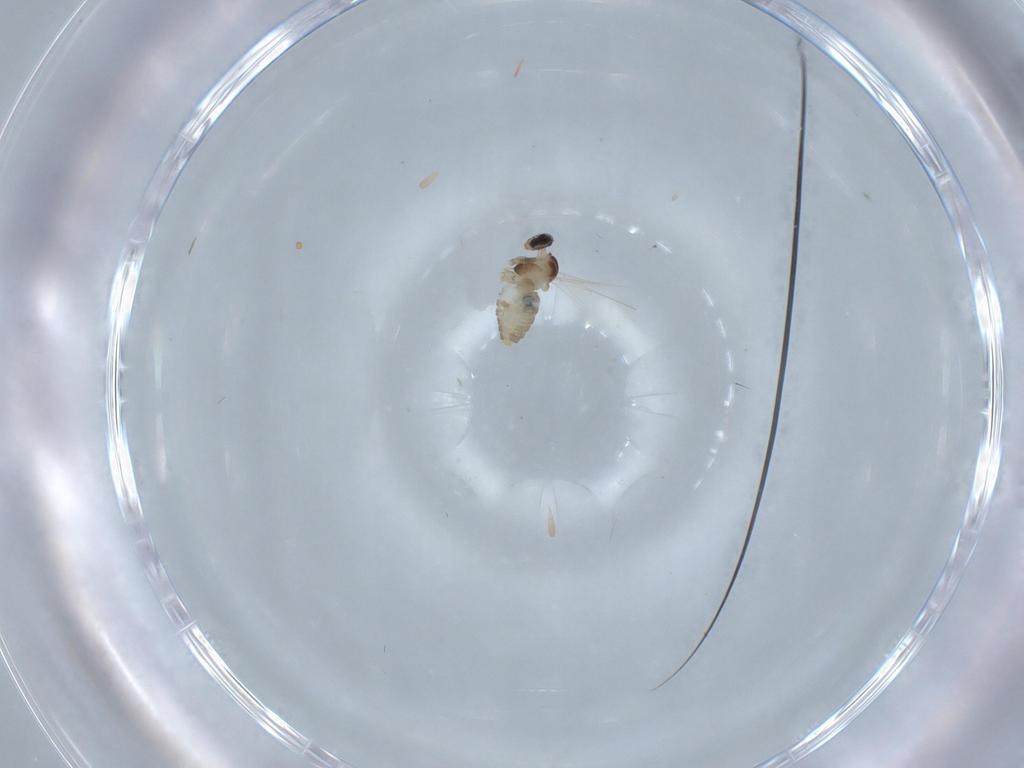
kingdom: Animalia
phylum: Arthropoda
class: Insecta
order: Diptera
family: Cecidomyiidae
